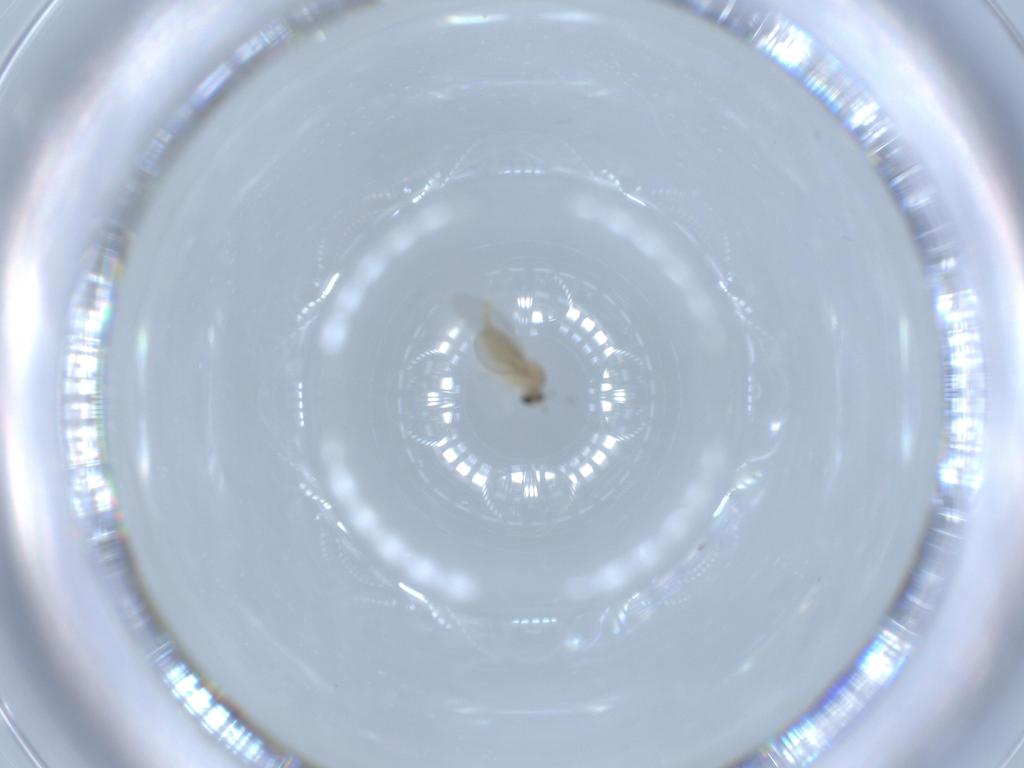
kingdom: Animalia
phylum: Arthropoda
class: Insecta
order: Diptera
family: Cecidomyiidae
